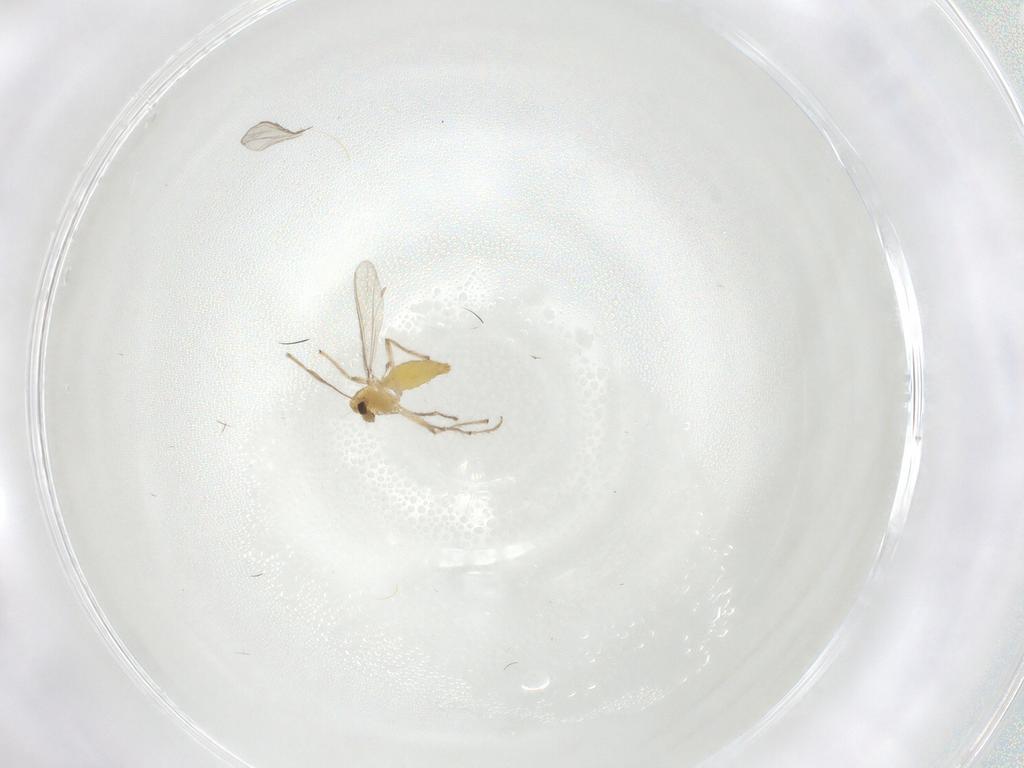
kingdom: Animalia
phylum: Arthropoda
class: Insecta
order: Diptera
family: Chironomidae
